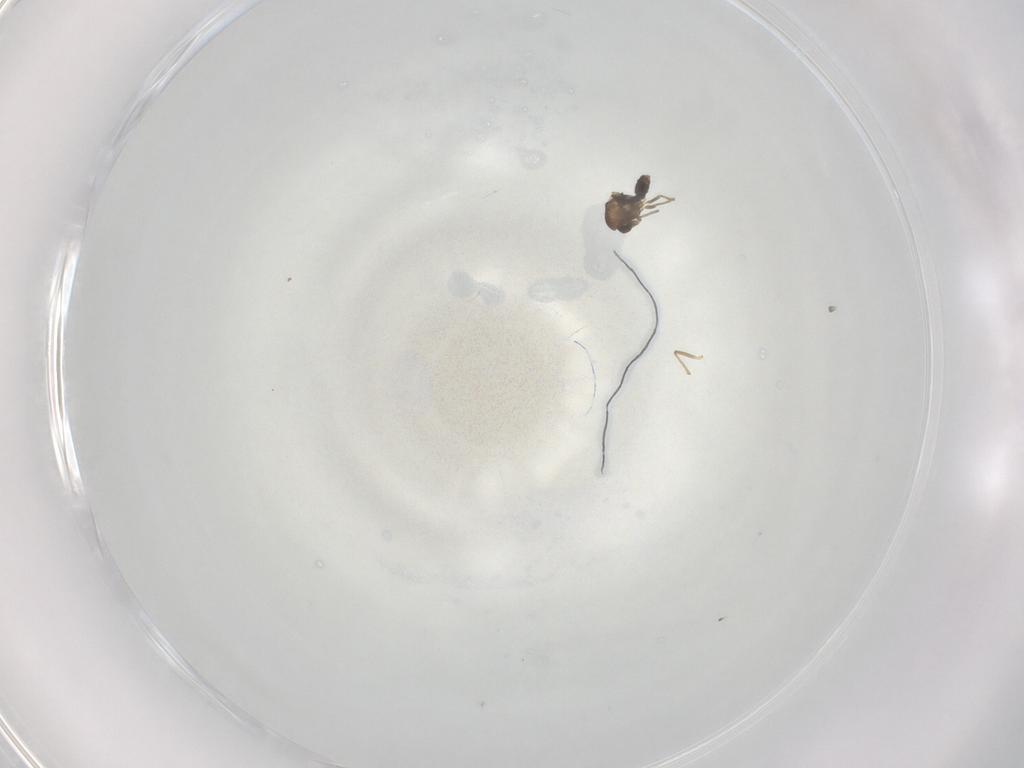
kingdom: Animalia
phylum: Arthropoda
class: Insecta
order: Diptera
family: Chironomidae
